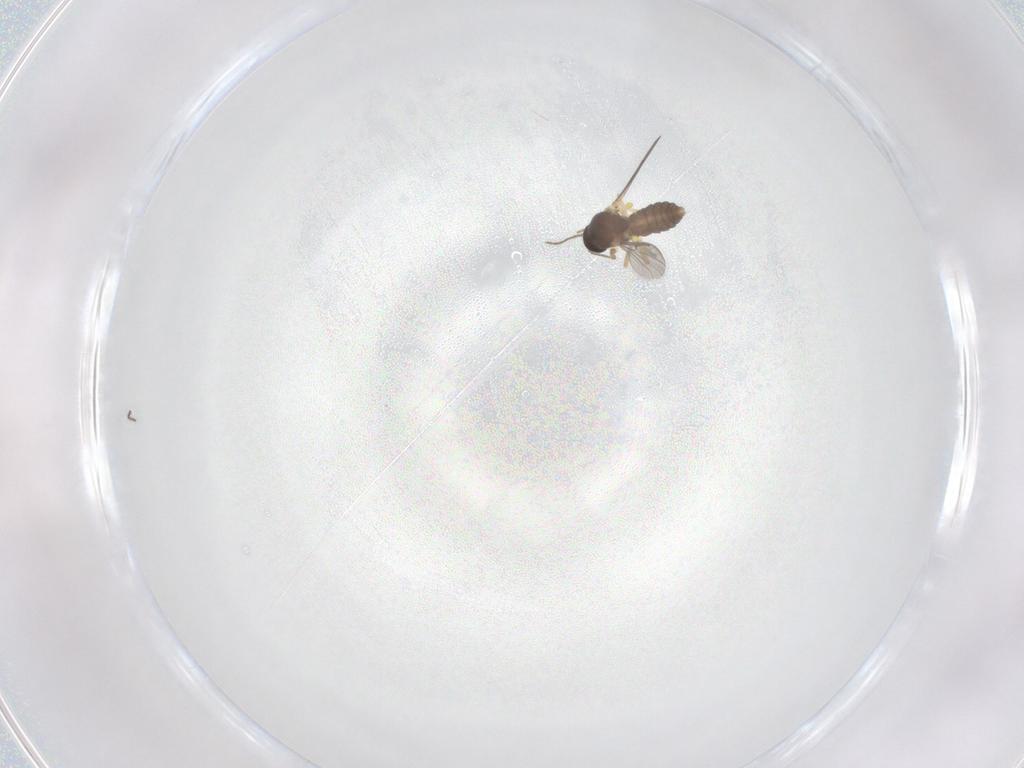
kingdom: Animalia
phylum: Arthropoda
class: Insecta
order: Diptera
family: Ceratopogonidae
